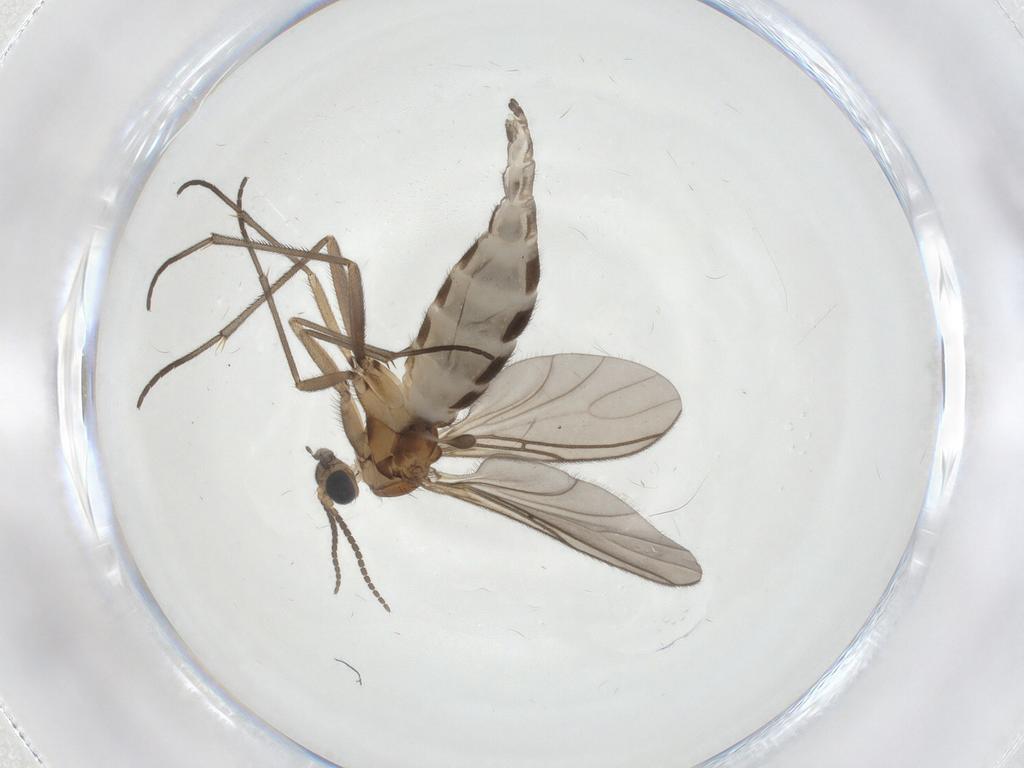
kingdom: Animalia
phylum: Arthropoda
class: Insecta
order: Diptera
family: Sciaridae
